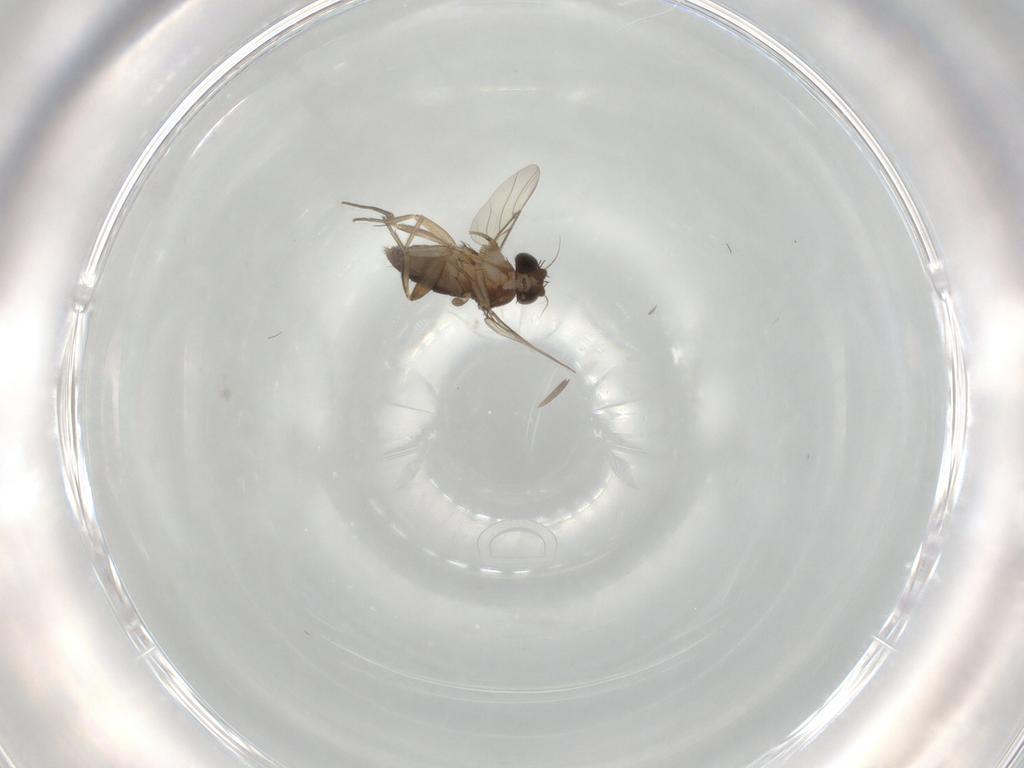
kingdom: Animalia
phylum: Arthropoda
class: Insecta
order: Diptera
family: Phoridae
